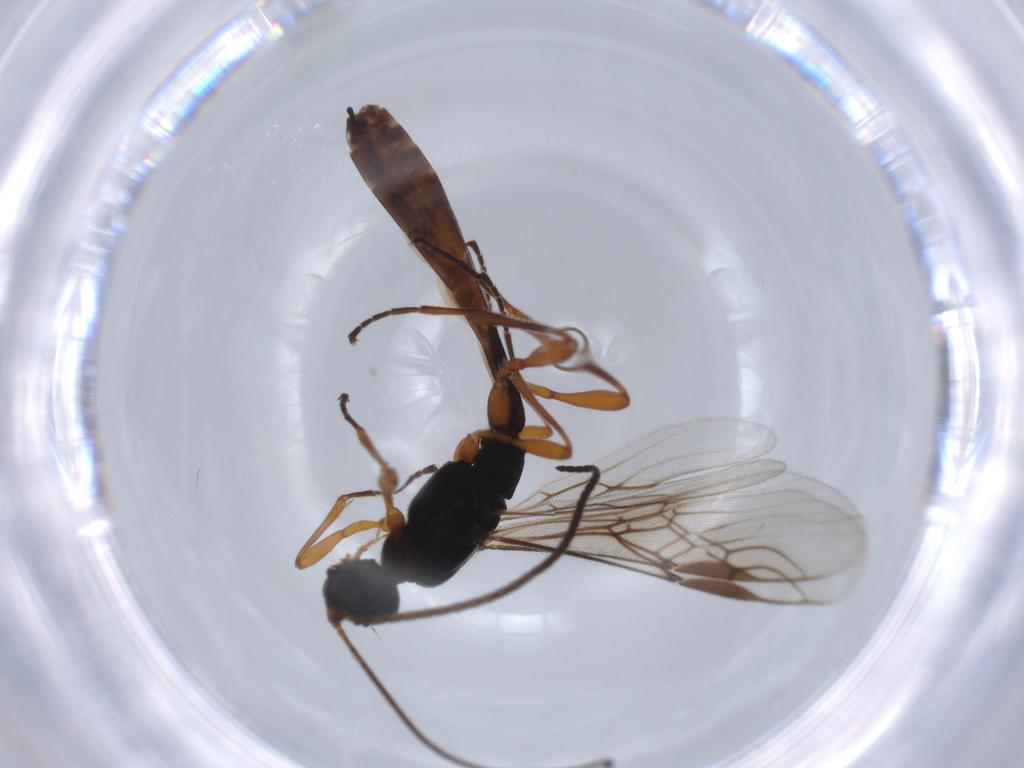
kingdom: Animalia
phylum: Arthropoda
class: Insecta
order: Hymenoptera
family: Braconidae
